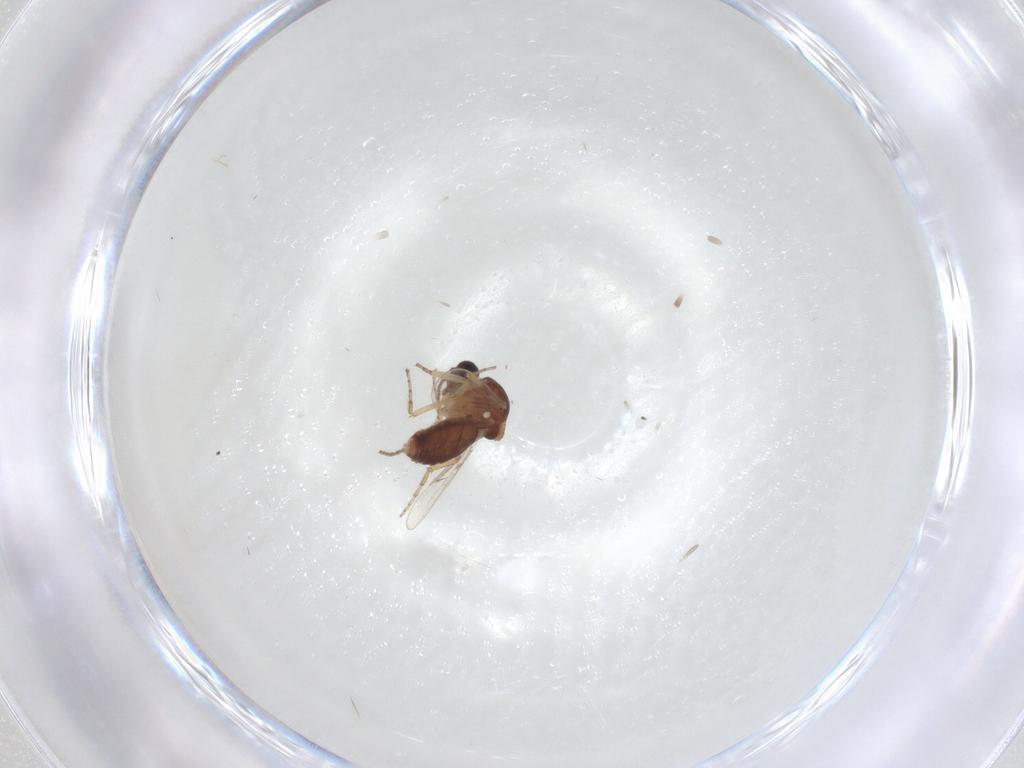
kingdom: Animalia
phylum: Arthropoda
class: Insecta
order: Diptera
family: Ceratopogonidae
